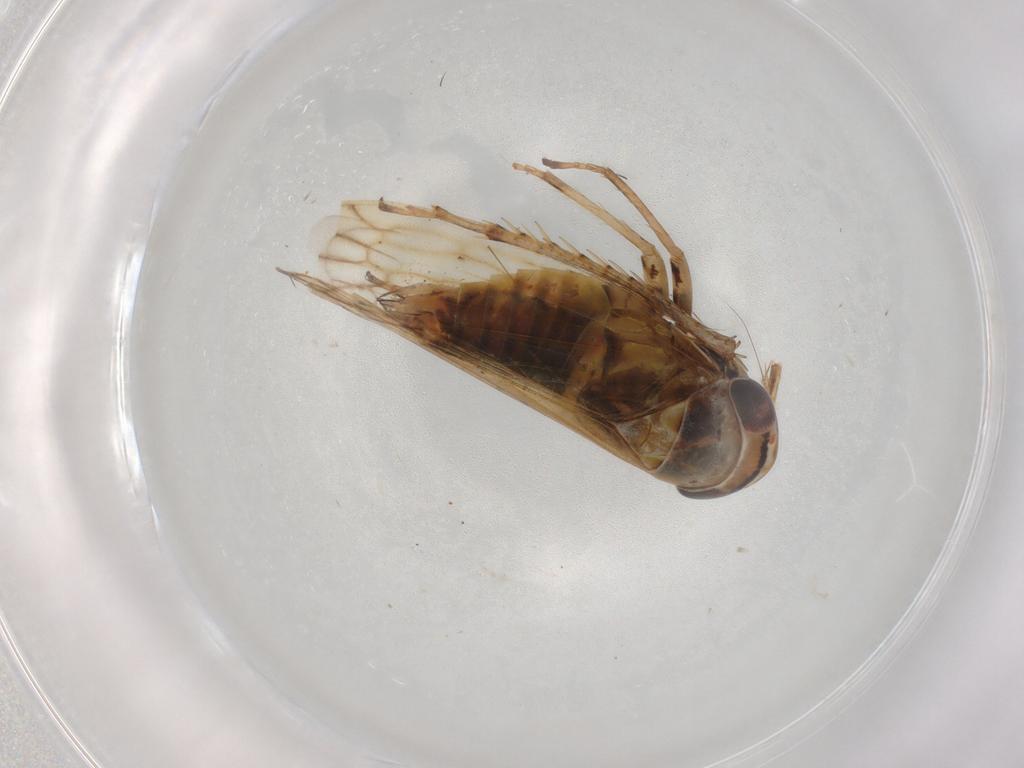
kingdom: Animalia
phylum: Arthropoda
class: Insecta
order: Hemiptera
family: Cicadellidae
